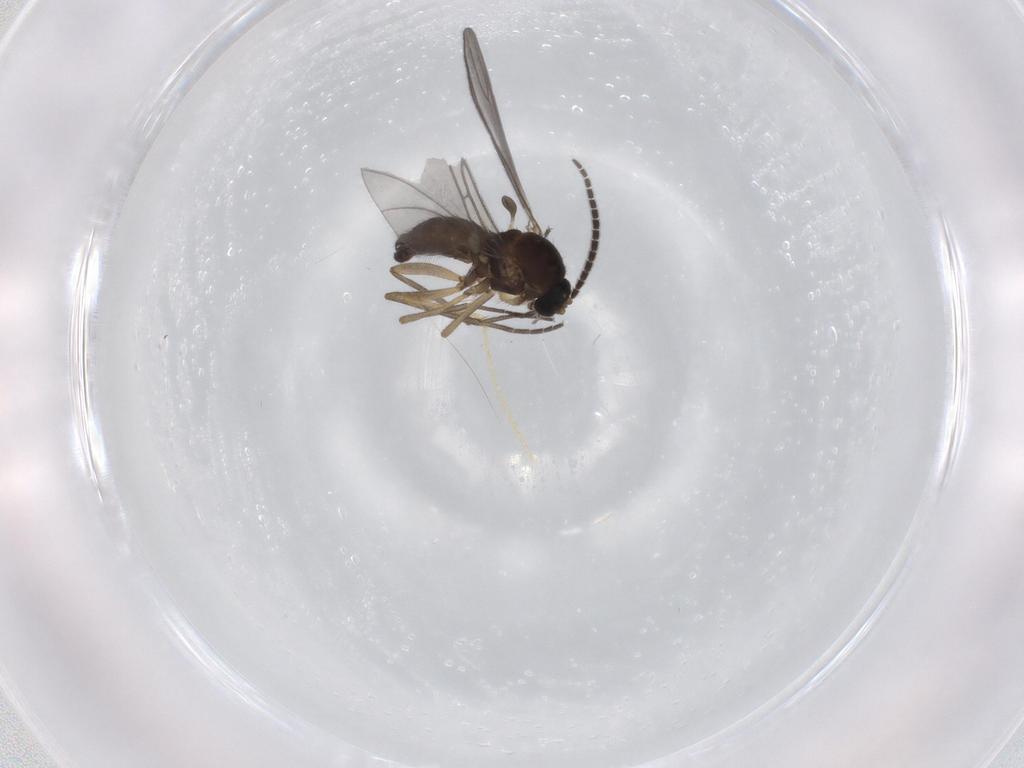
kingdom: Animalia
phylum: Arthropoda
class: Insecta
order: Diptera
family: Sciaridae
